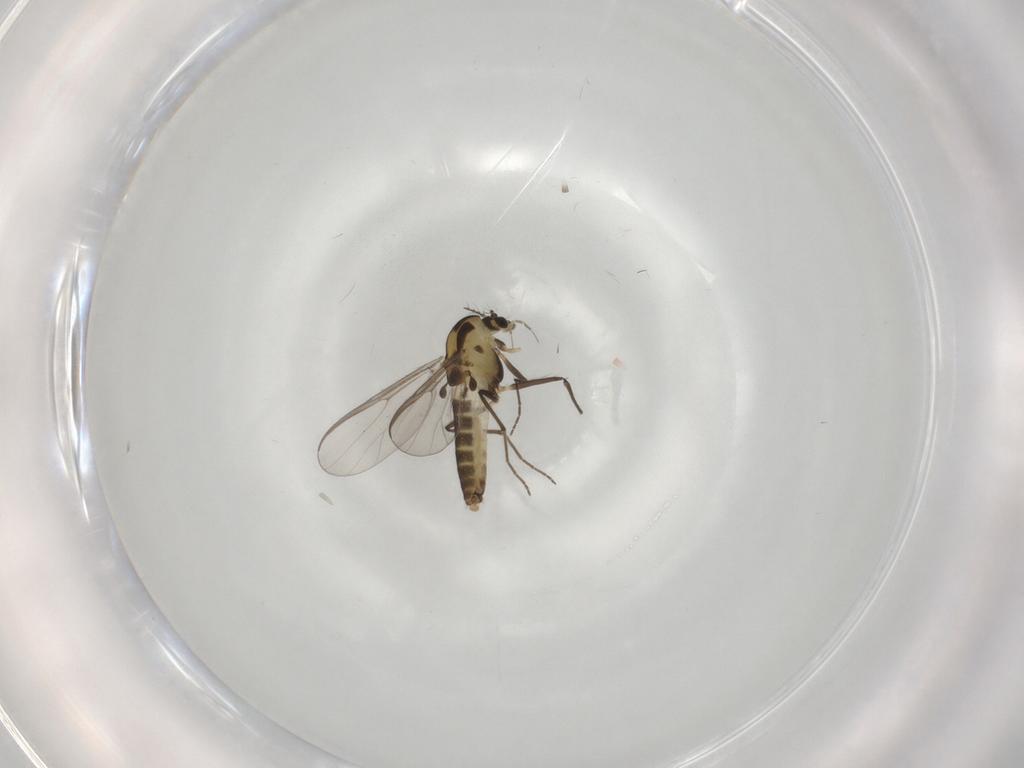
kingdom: Animalia
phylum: Arthropoda
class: Insecta
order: Diptera
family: Chironomidae
